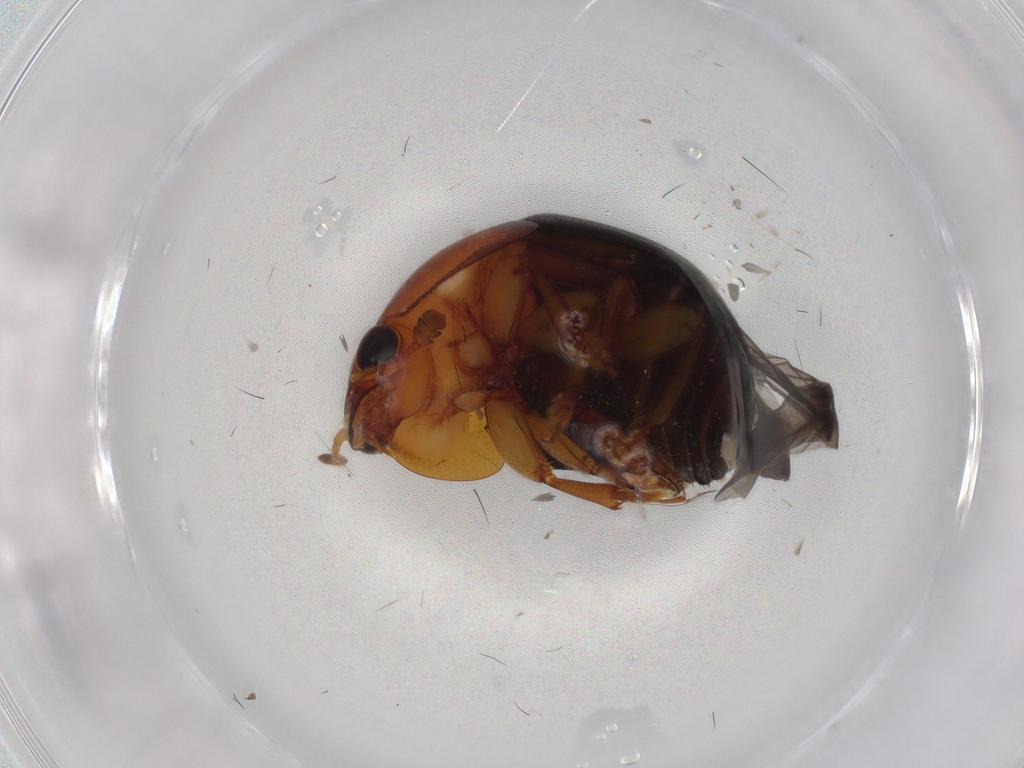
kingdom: Animalia
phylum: Arthropoda
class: Insecta
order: Coleoptera
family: Nitidulidae
